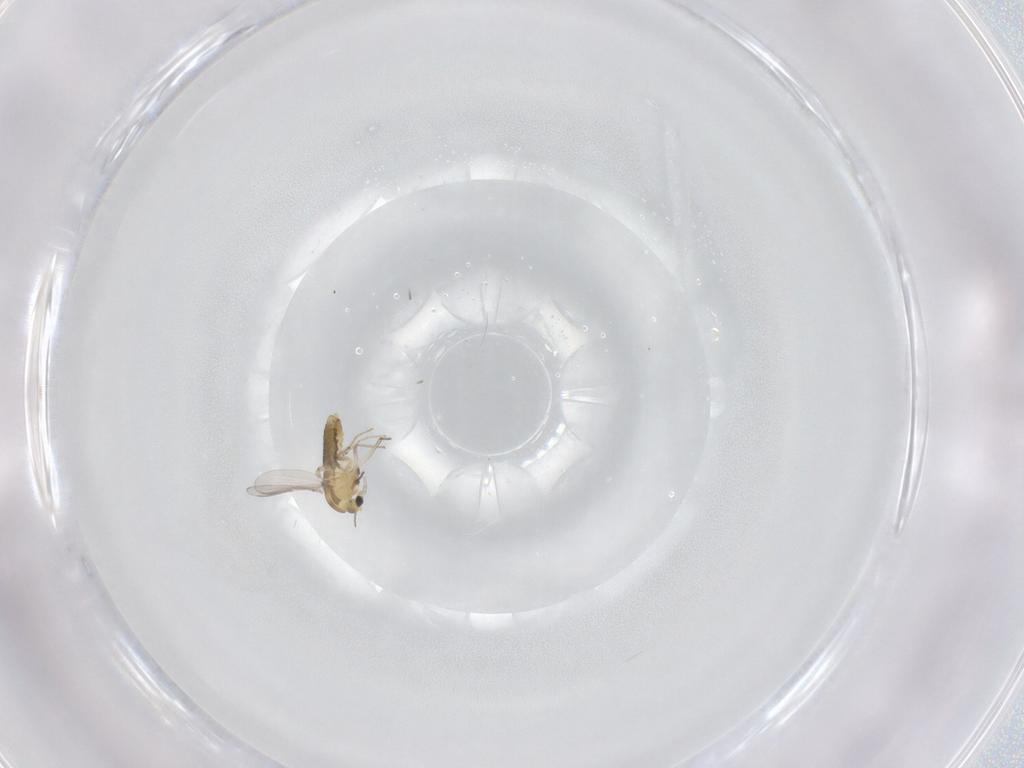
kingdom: Animalia
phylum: Arthropoda
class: Insecta
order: Diptera
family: Chironomidae
